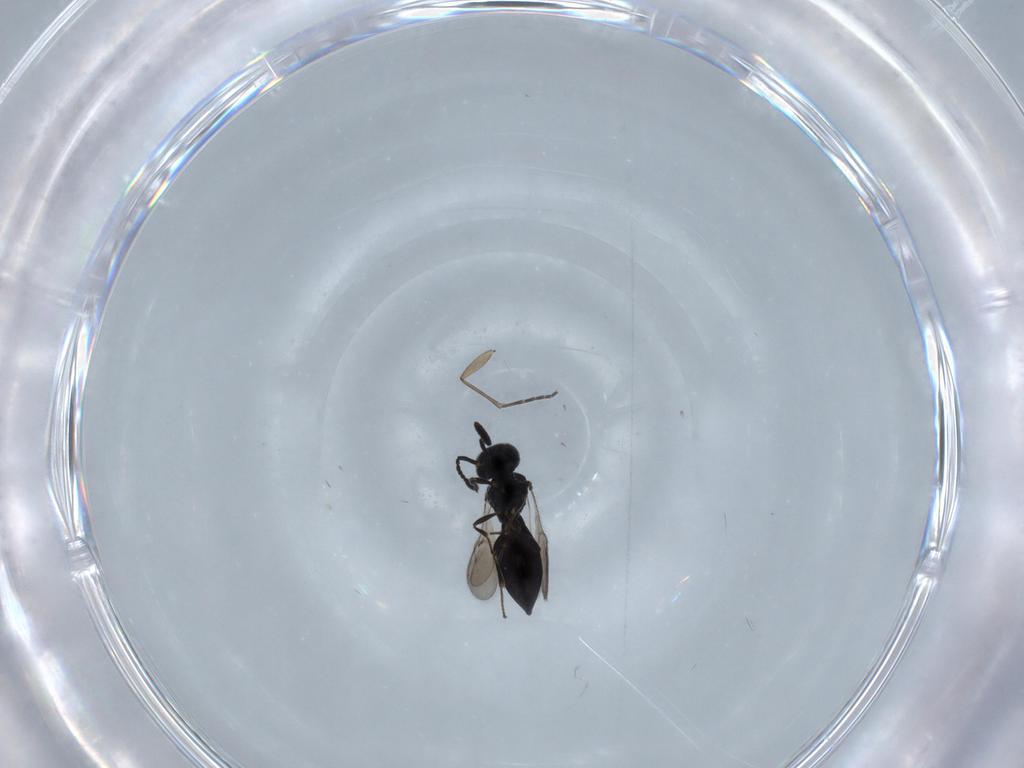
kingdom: Animalia
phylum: Arthropoda
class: Insecta
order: Hymenoptera
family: Scelionidae
